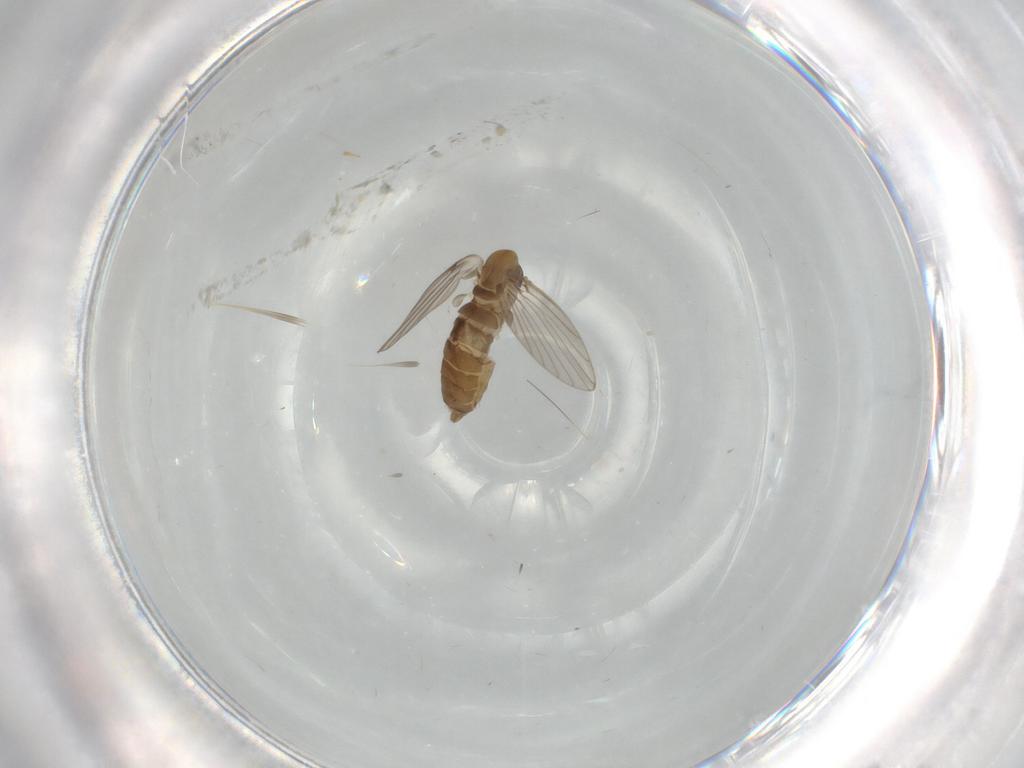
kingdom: Animalia
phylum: Arthropoda
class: Insecta
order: Diptera
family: Psychodidae
